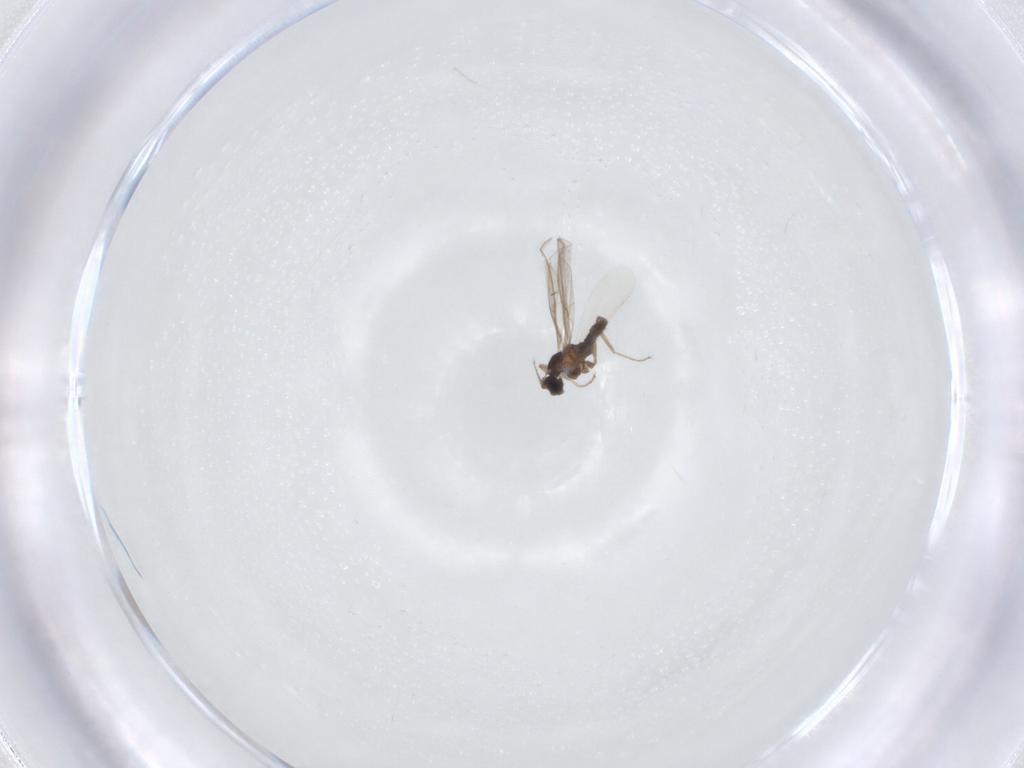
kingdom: Animalia
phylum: Arthropoda
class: Insecta
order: Diptera
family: Cecidomyiidae
